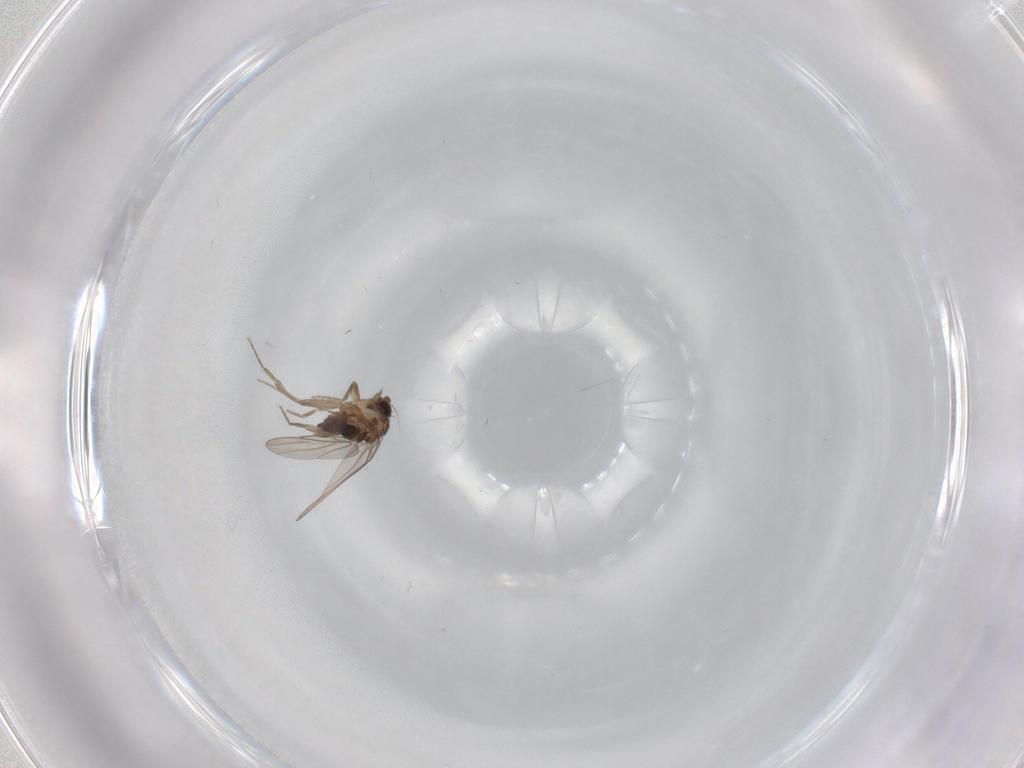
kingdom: Animalia
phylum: Arthropoda
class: Insecta
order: Diptera
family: Phoridae
